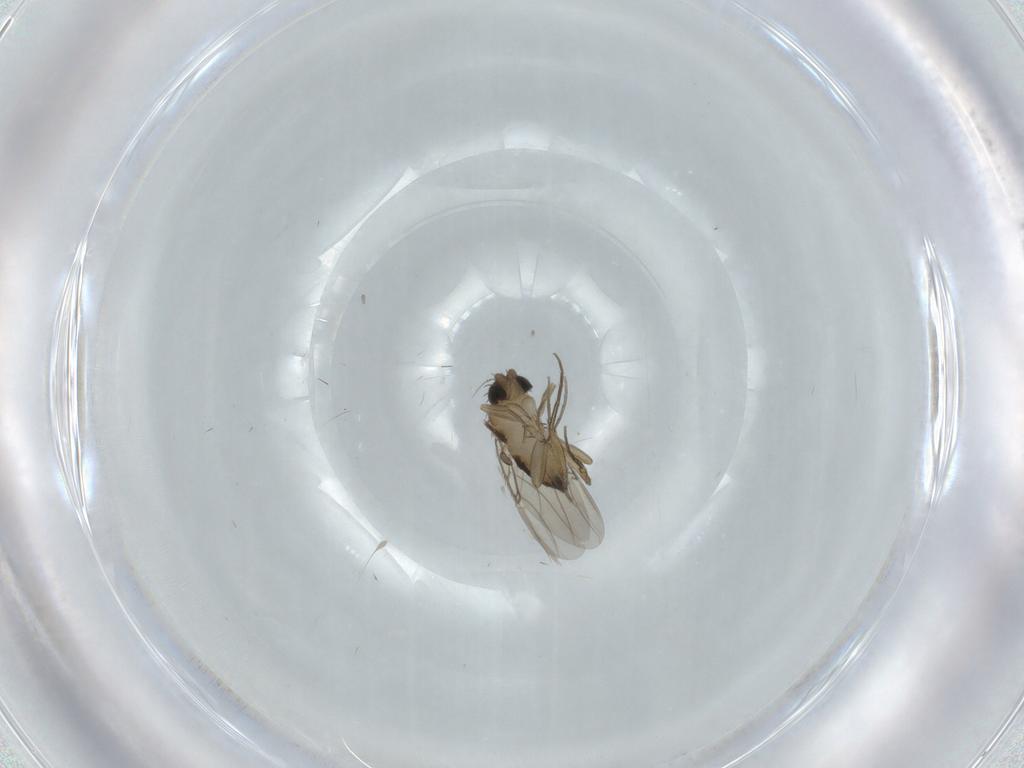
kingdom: Animalia
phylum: Arthropoda
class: Insecta
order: Diptera
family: Phoridae
